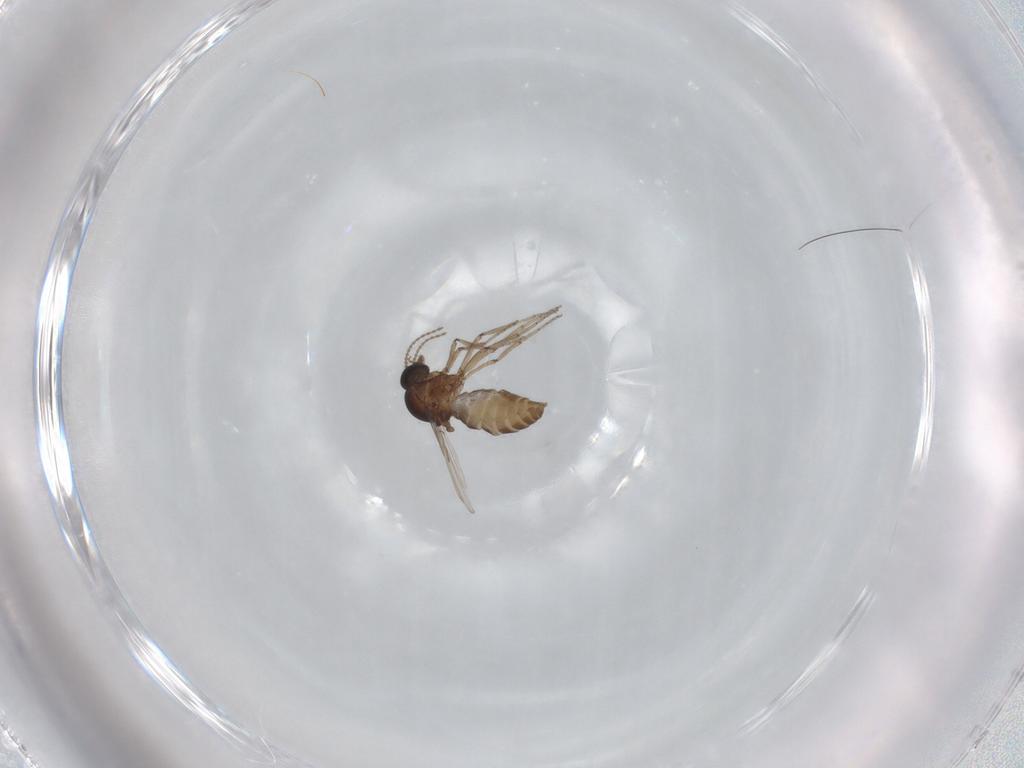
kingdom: Animalia
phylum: Arthropoda
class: Insecta
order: Diptera
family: Ceratopogonidae
